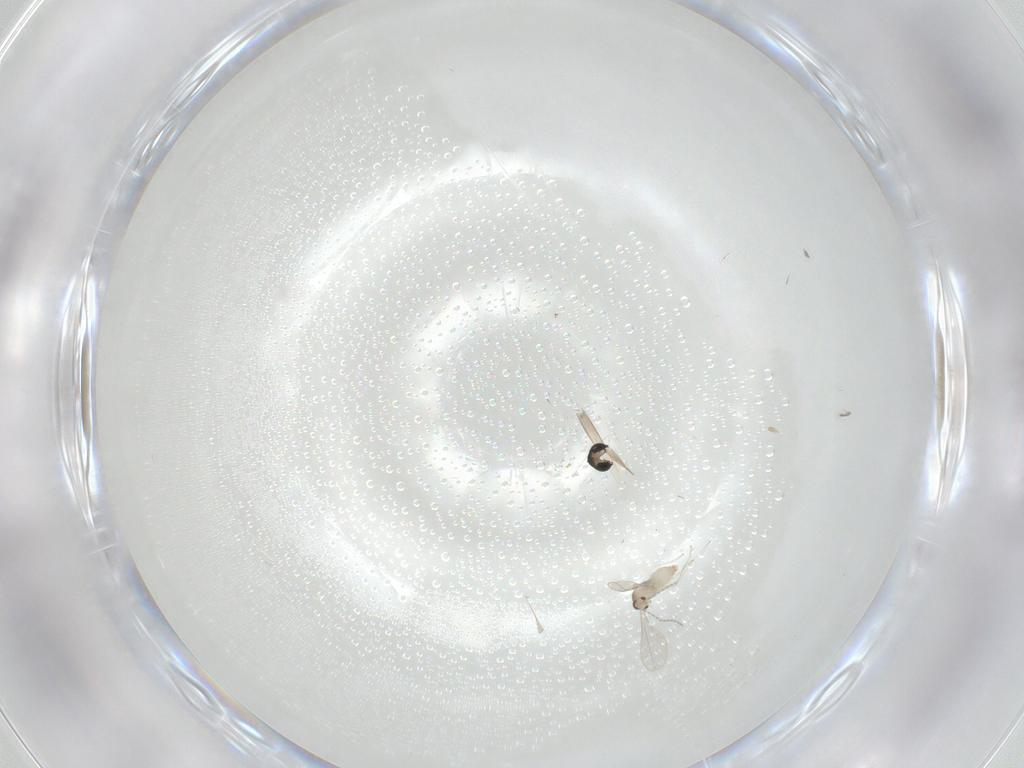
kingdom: Animalia
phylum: Arthropoda
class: Insecta
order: Diptera
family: Cecidomyiidae
